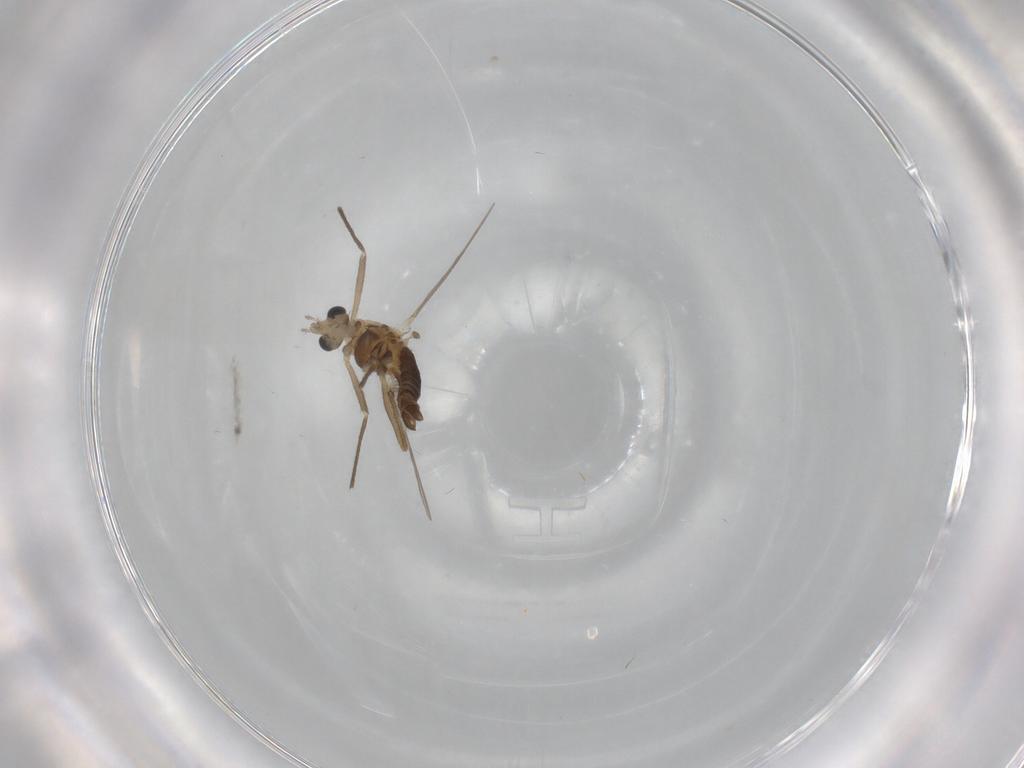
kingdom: Animalia
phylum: Arthropoda
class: Insecta
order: Diptera
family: Chironomidae
